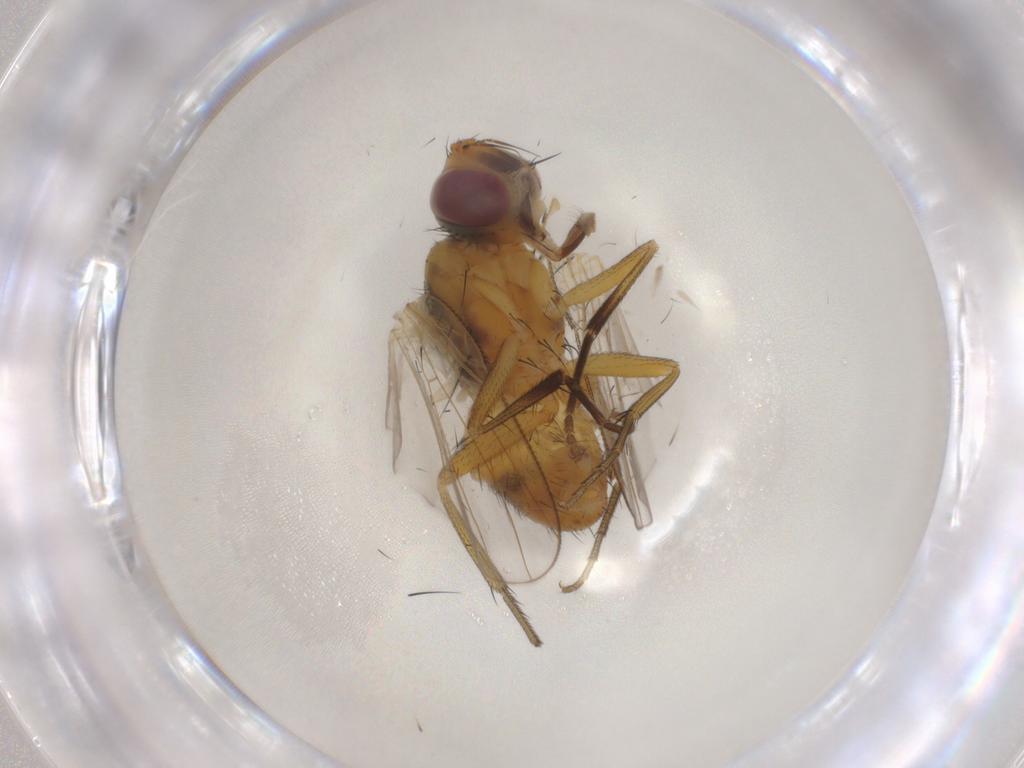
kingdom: Animalia
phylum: Arthropoda
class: Insecta
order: Diptera
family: Muscidae
